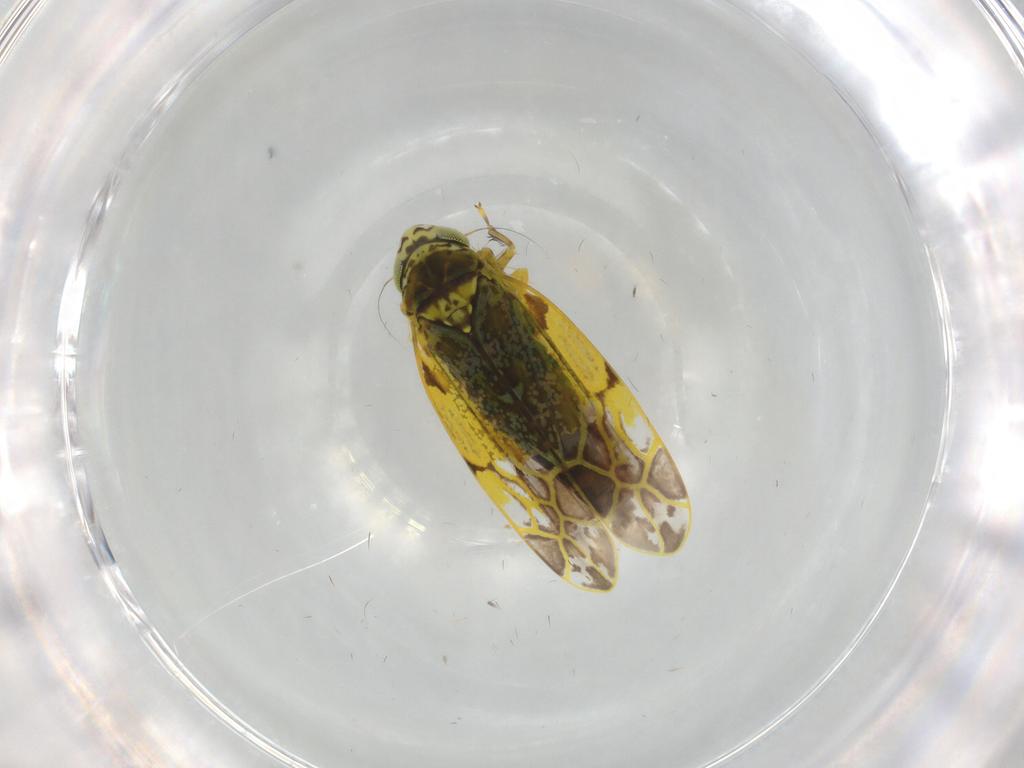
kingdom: Animalia
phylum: Arthropoda
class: Insecta
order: Hemiptera
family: Cicadellidae
